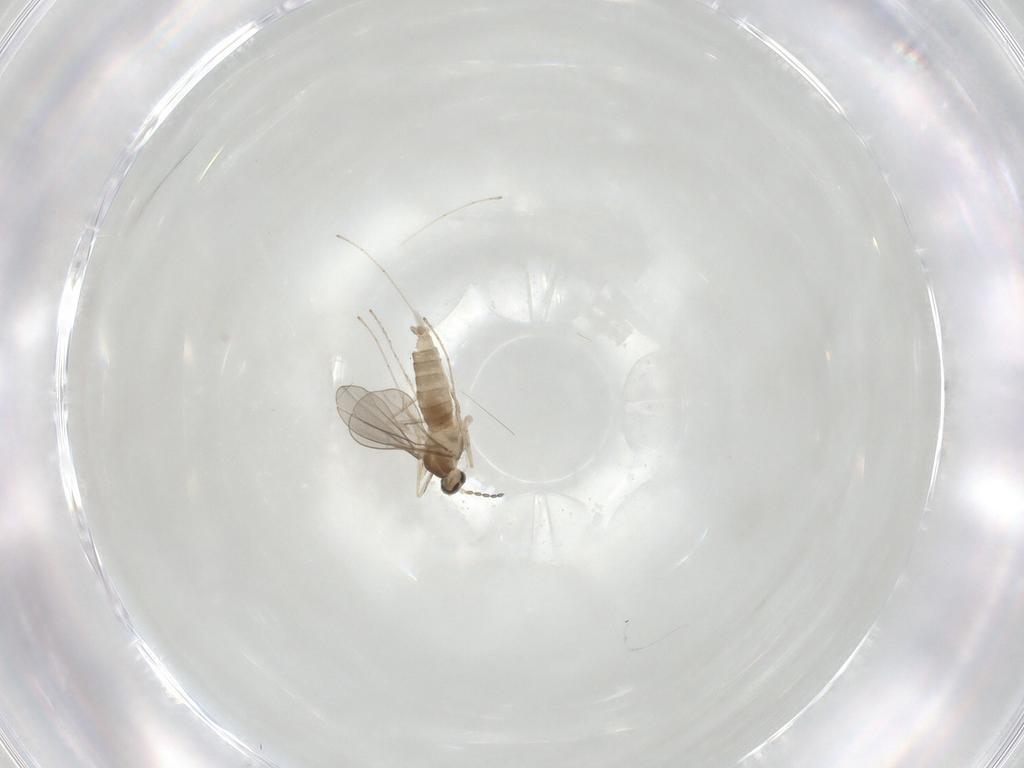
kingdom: Animalia
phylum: Arthropoda
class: Insecta
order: Diptera
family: Cecidomyiidae
